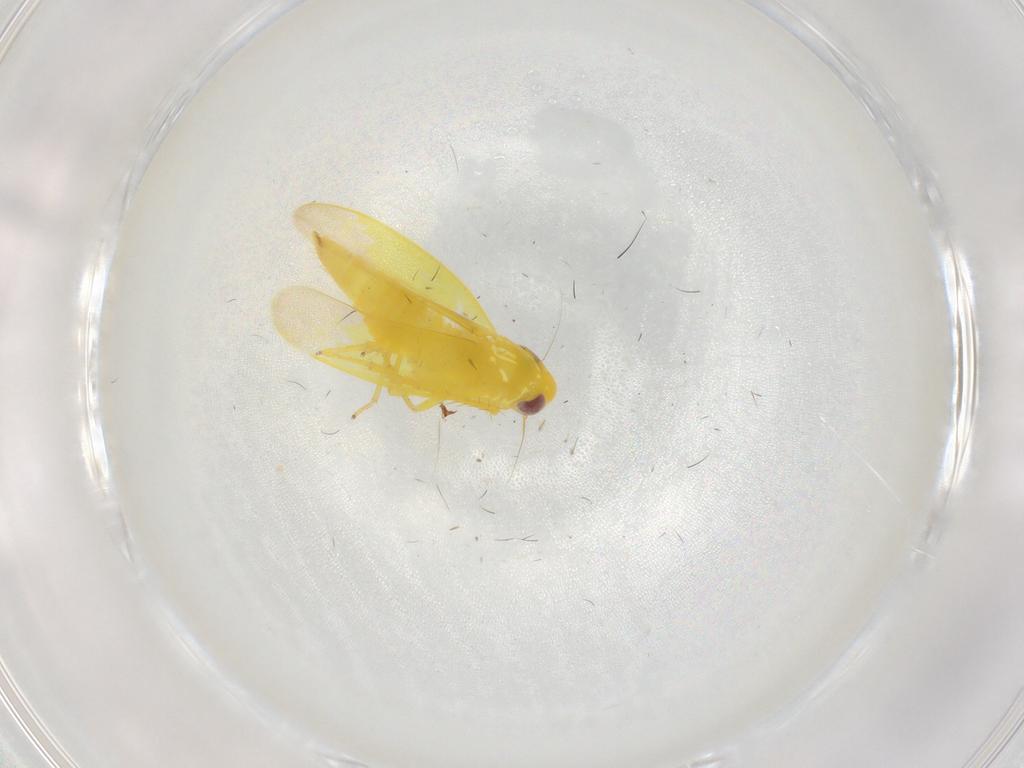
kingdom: Animalia
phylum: Arthropoda
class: Insecta
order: Hemiptera
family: Cicadellidae
